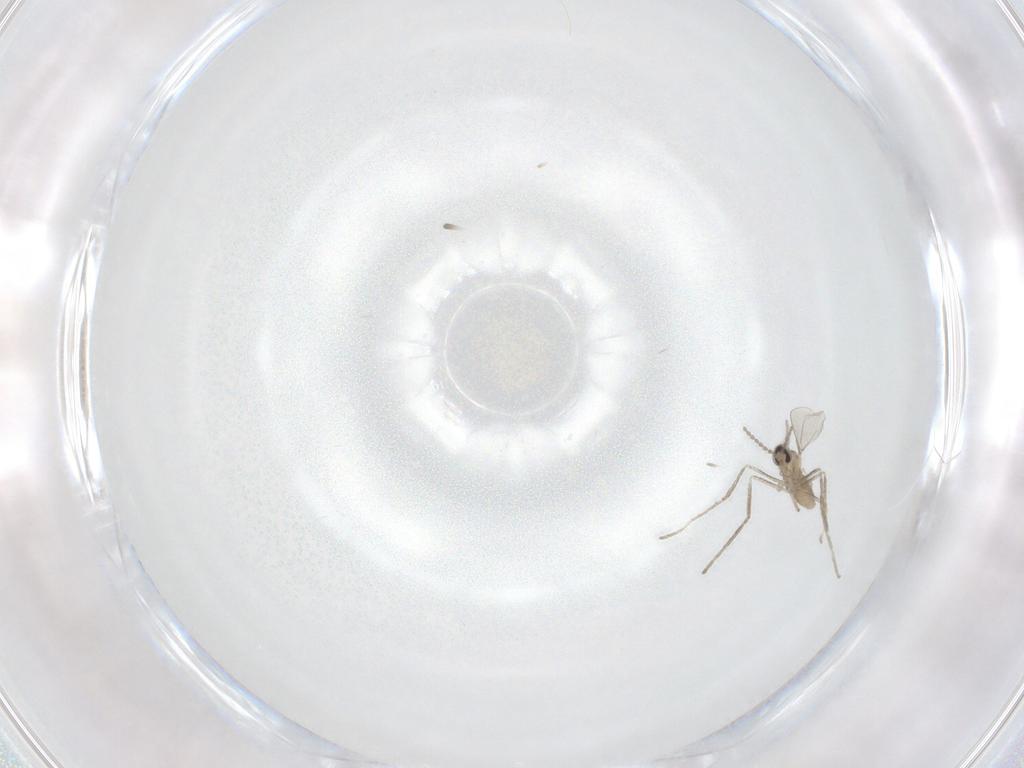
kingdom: Animalia
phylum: Arthropoda
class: Insecta
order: Diptera
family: Cecidomyiidae
